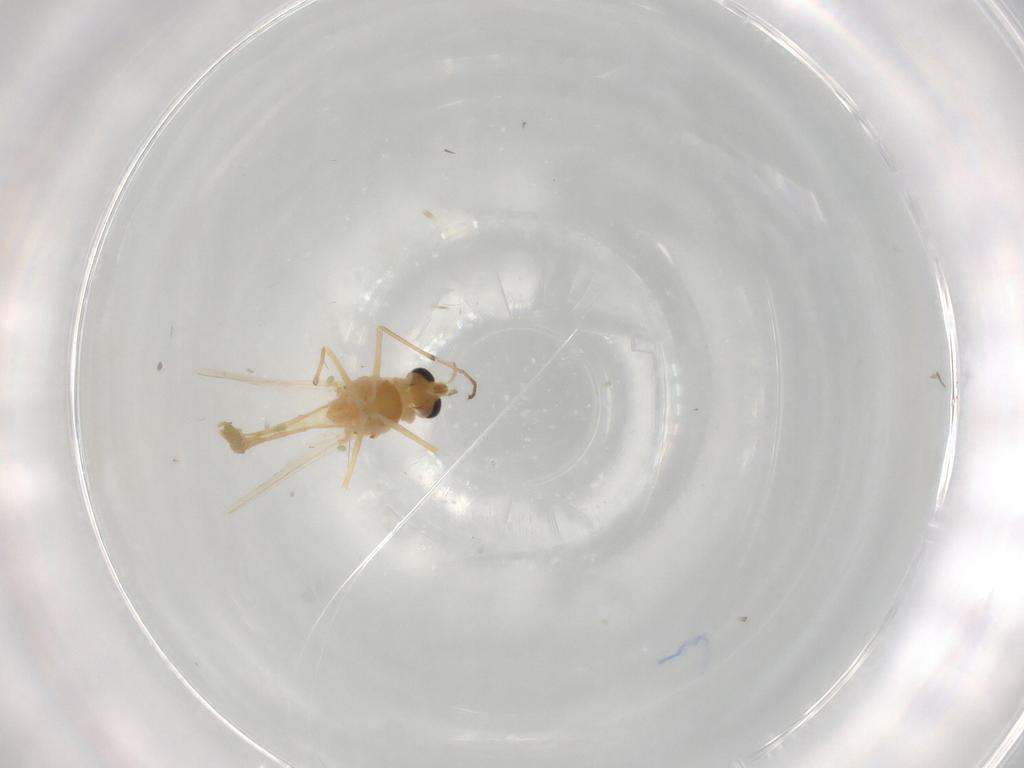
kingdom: Animalia
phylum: Arthropoda
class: Insecta
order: Diptera
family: Chironomidae
